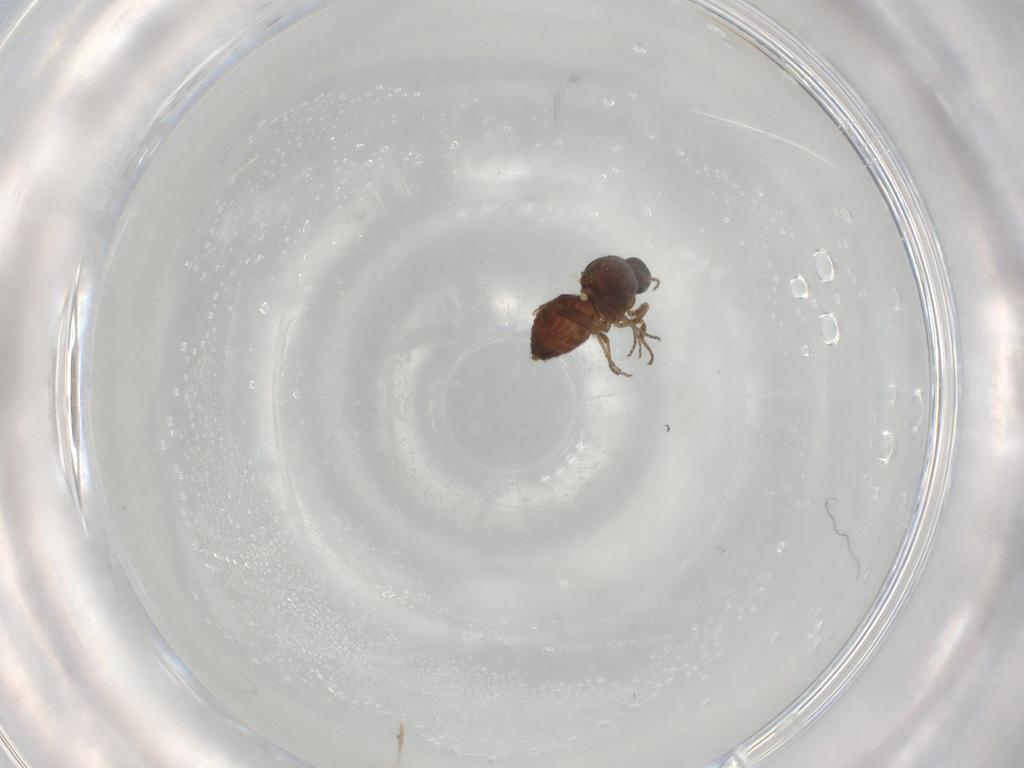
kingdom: Animalia
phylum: Arthropoda
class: Insecta
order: Diptera
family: Ceratopogonidae
